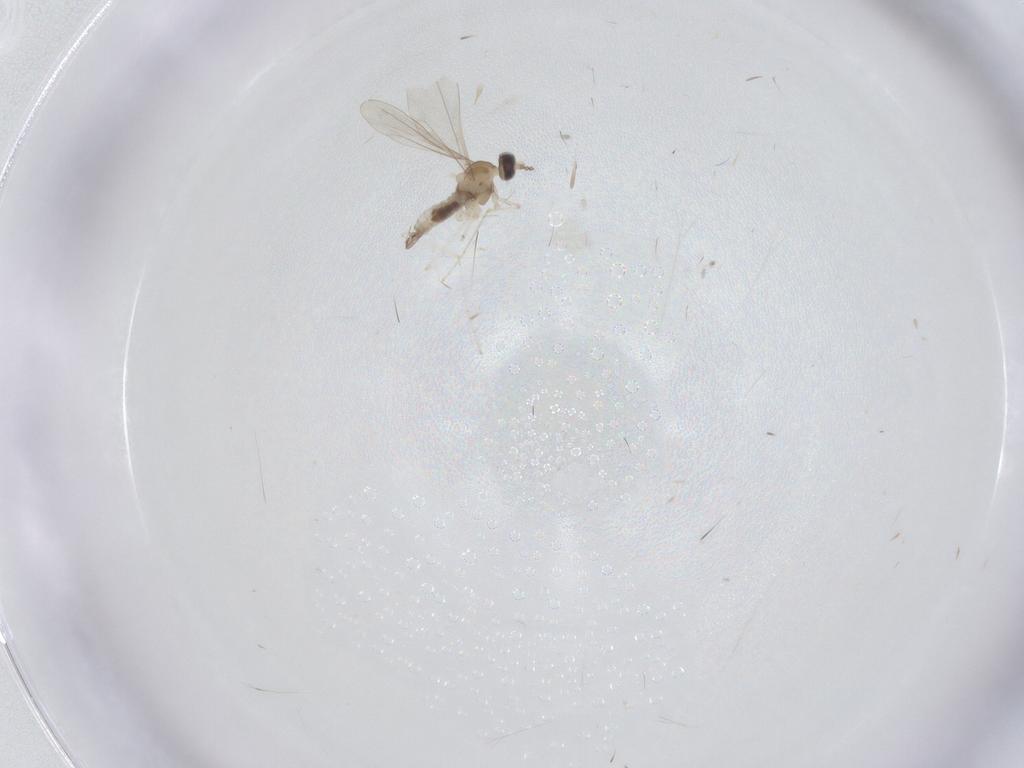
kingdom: Animalia
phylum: Arthropoda
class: Insecta
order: Diptera
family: Cecidomyiidae
